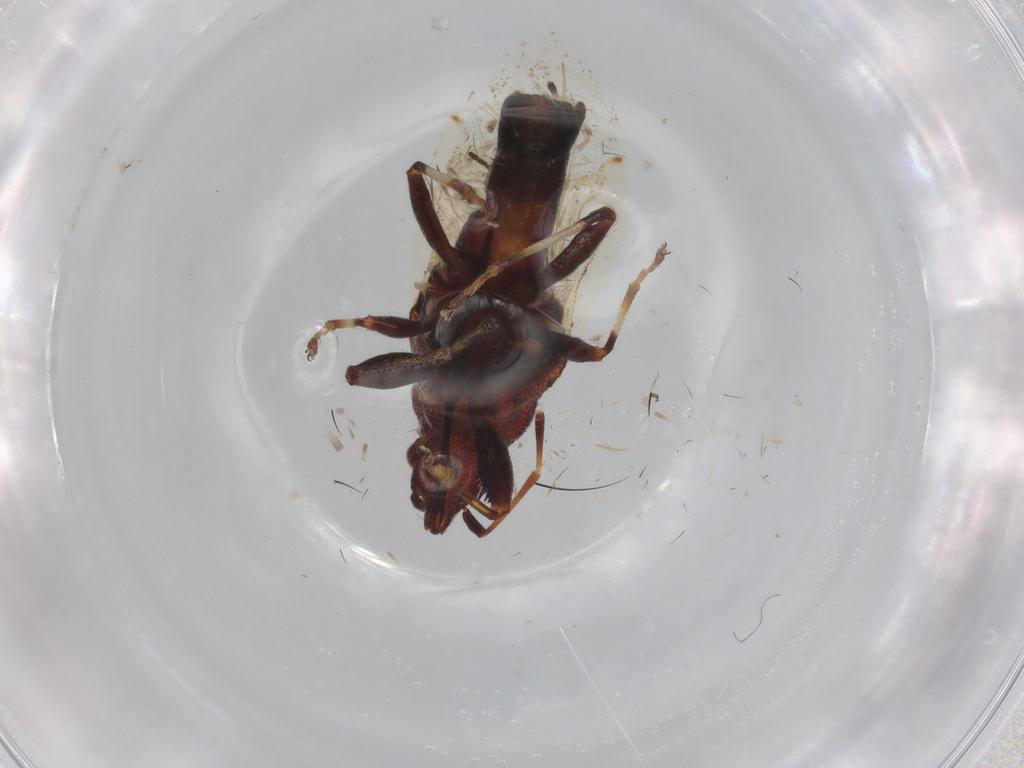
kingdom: Animalia
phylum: Arthropoda
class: Insecta
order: Hemiptera
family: Oxycarenidae
